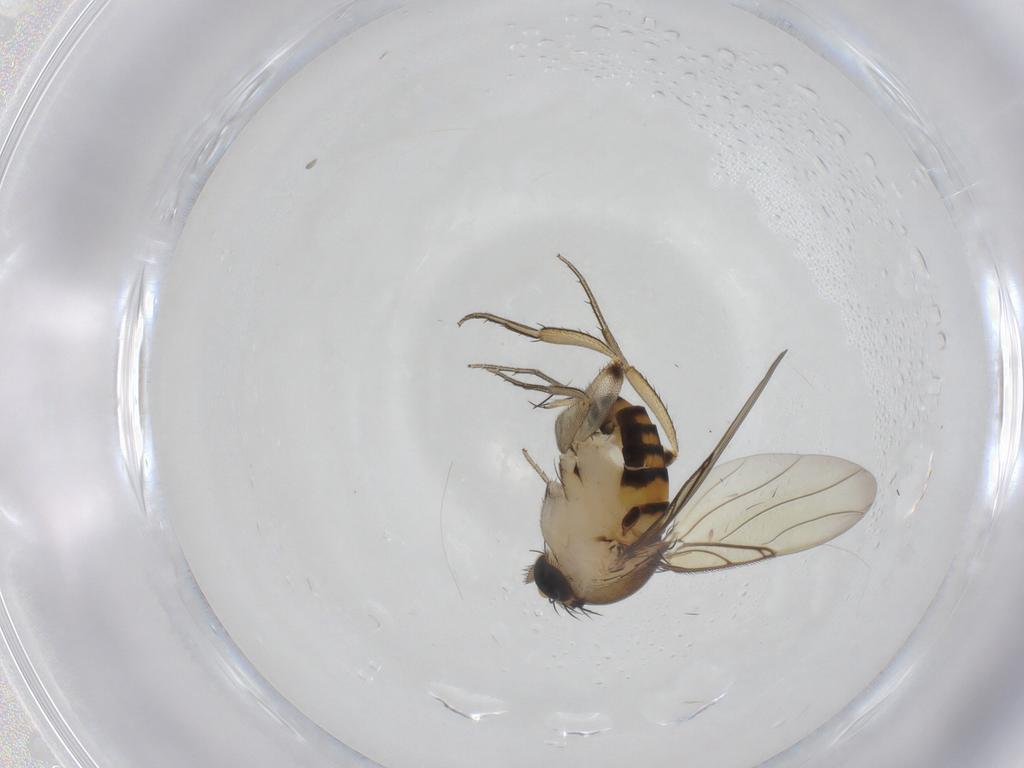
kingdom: Animalia
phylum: Arthropoda
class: Insecta
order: Diptera
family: Phoridae
